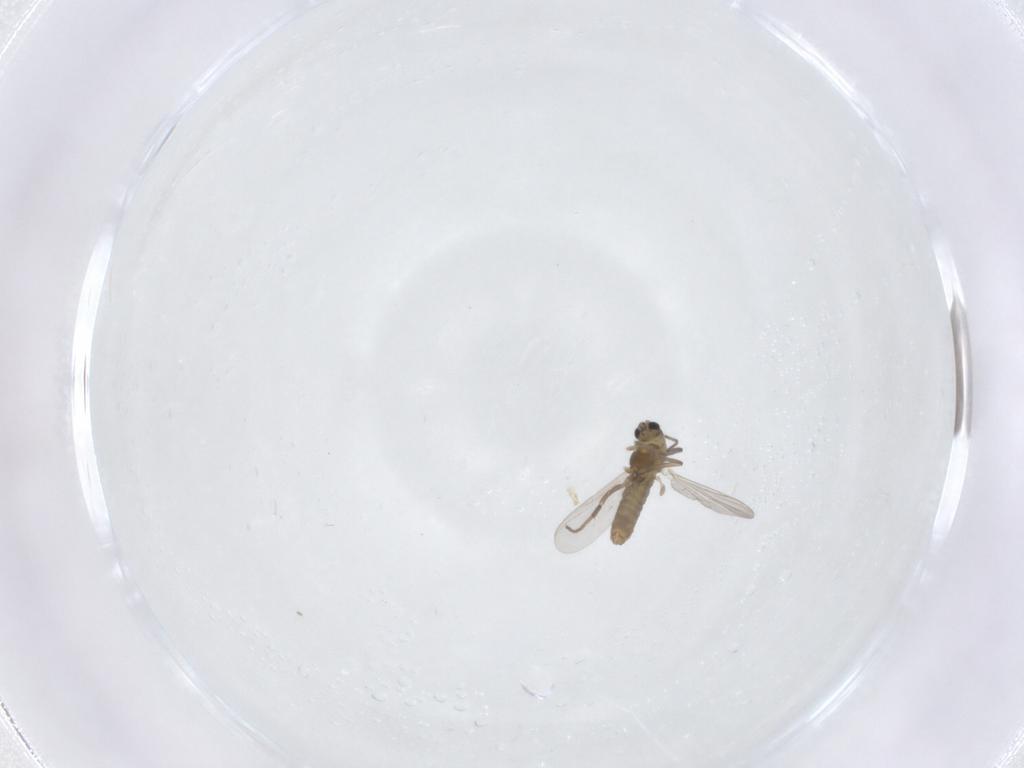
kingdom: Animalia
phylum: Arthropoda
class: Insecta
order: Diptera
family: Chironomidae
